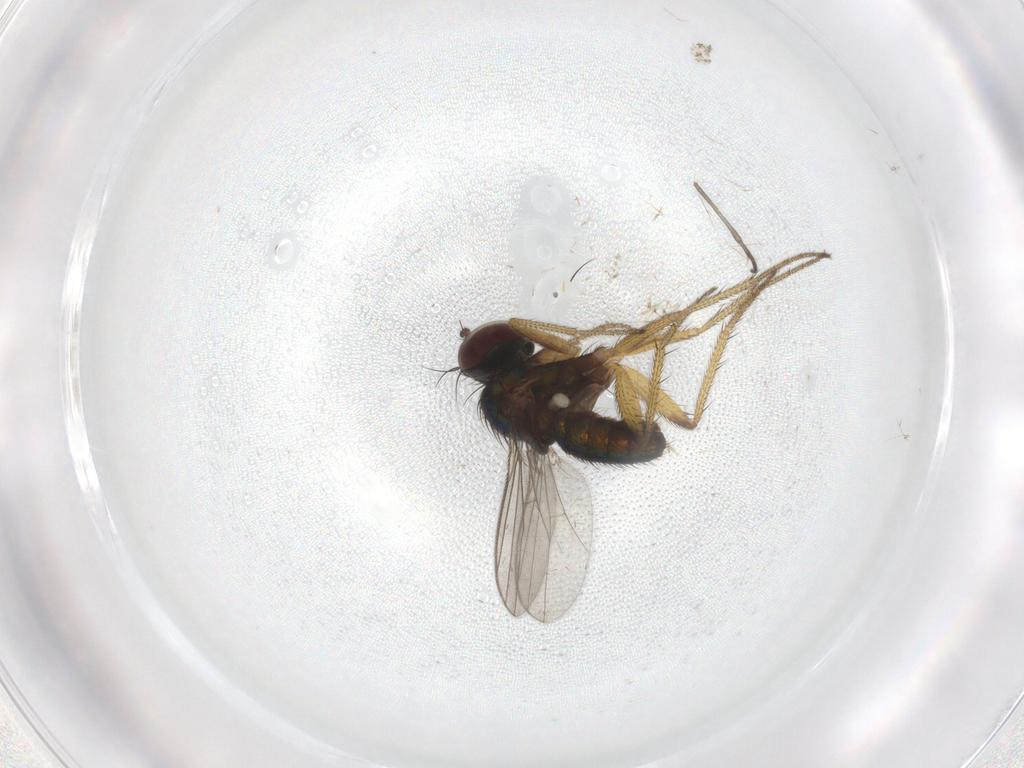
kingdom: Animalia
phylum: Arthropoda
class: Insecta
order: Diptera
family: Sciaridae
